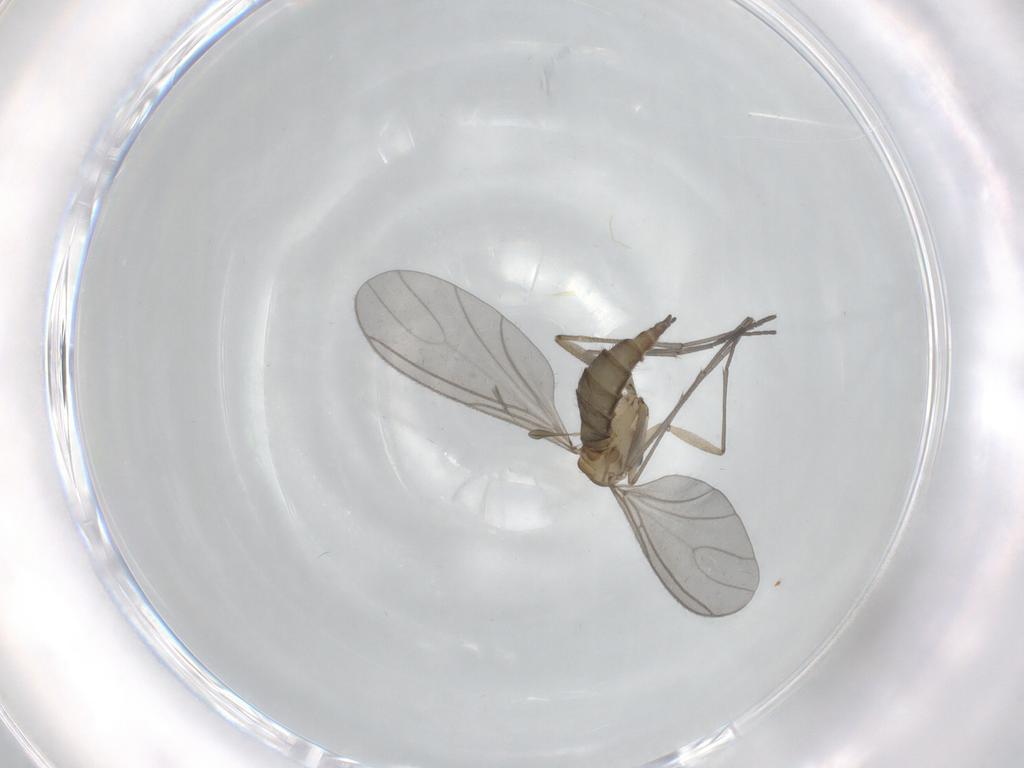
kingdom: Animalia
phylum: Arthropoda
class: Insecta
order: Diptera
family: Sciaridae
